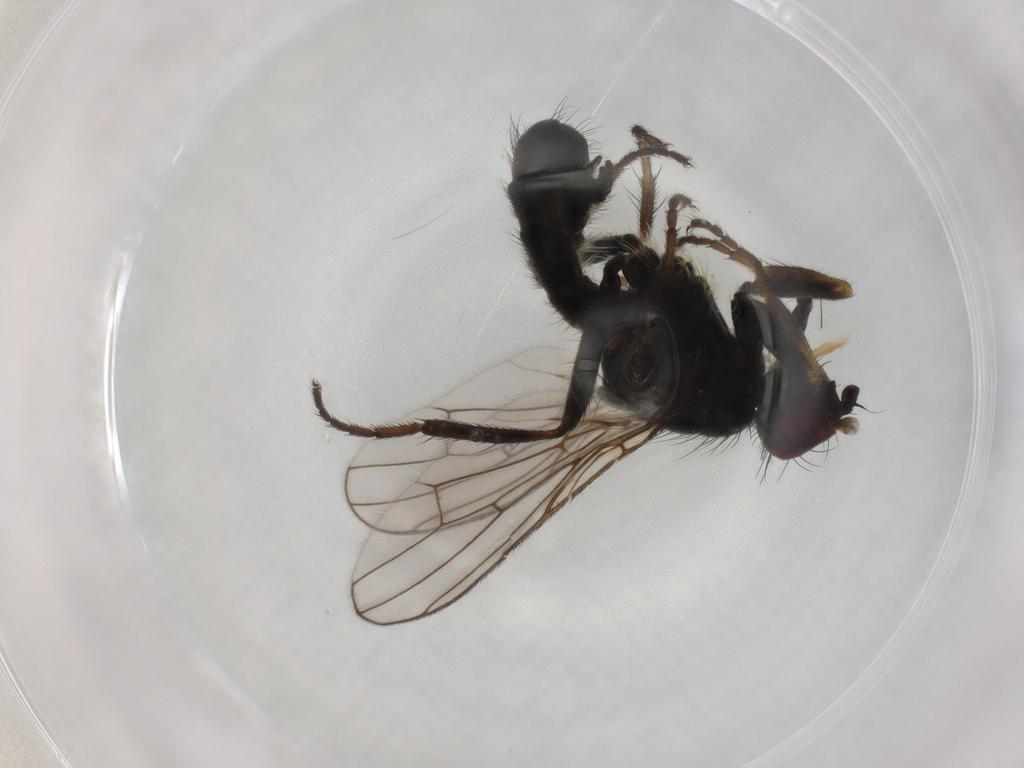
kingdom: Animalia
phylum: Arthropoda
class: Insecta
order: Diptera
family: Scathophagidae
